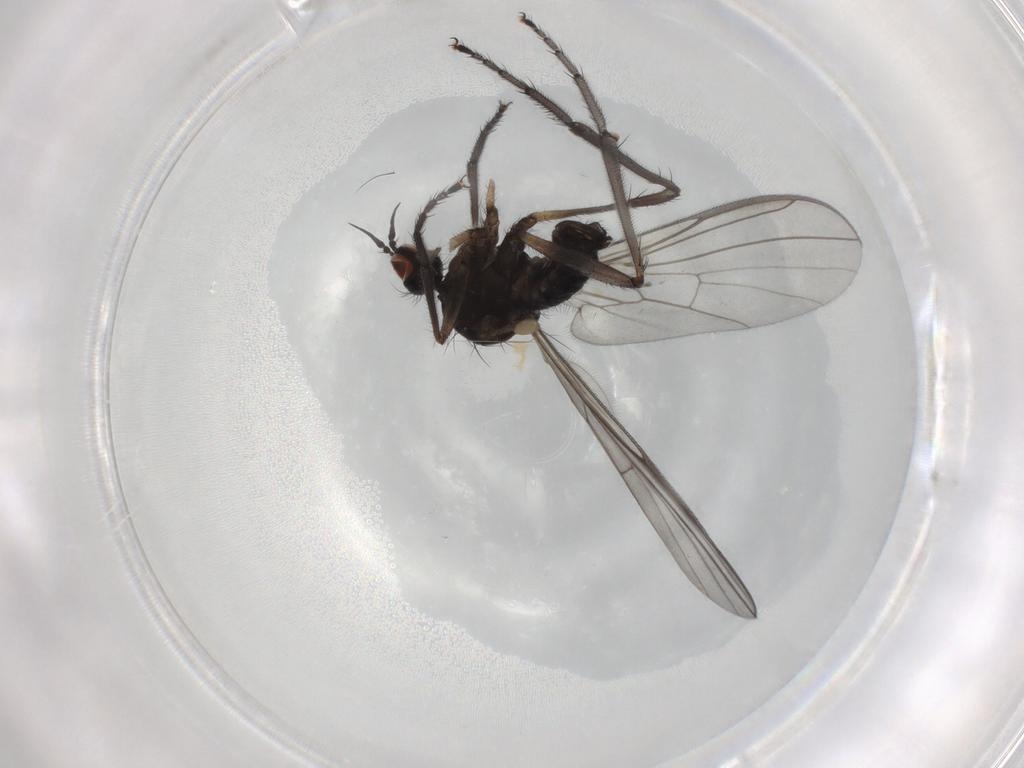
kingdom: Animalia
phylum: Arthropoda
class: Insecta
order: Diptera
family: Empididae
